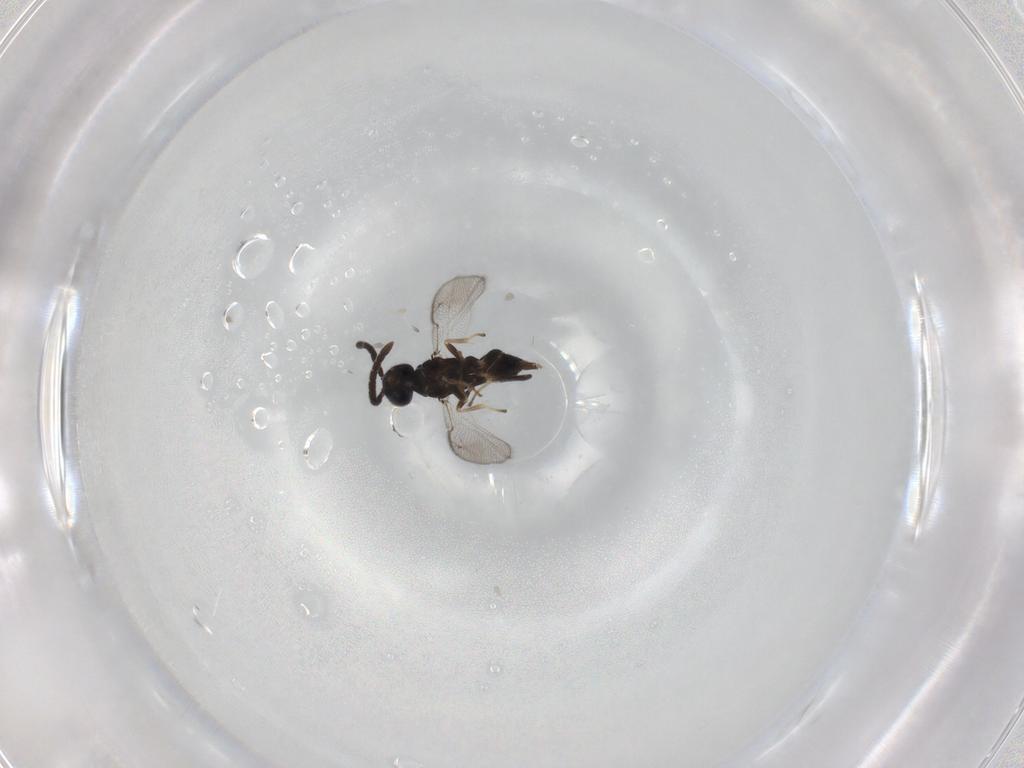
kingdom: Animalia
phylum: Arthropoda
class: Insecta
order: Hymenoptera
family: Eupelmidae
